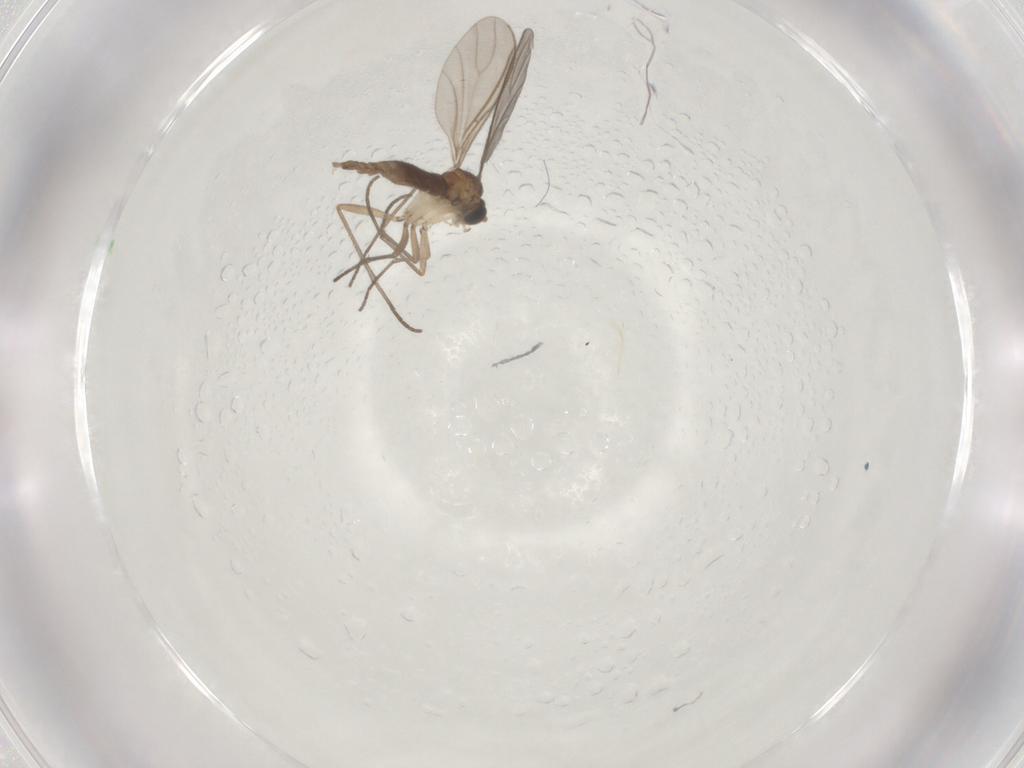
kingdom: Animalia
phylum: Arthropoda
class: Insecta
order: Diptera
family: Sciaridae
